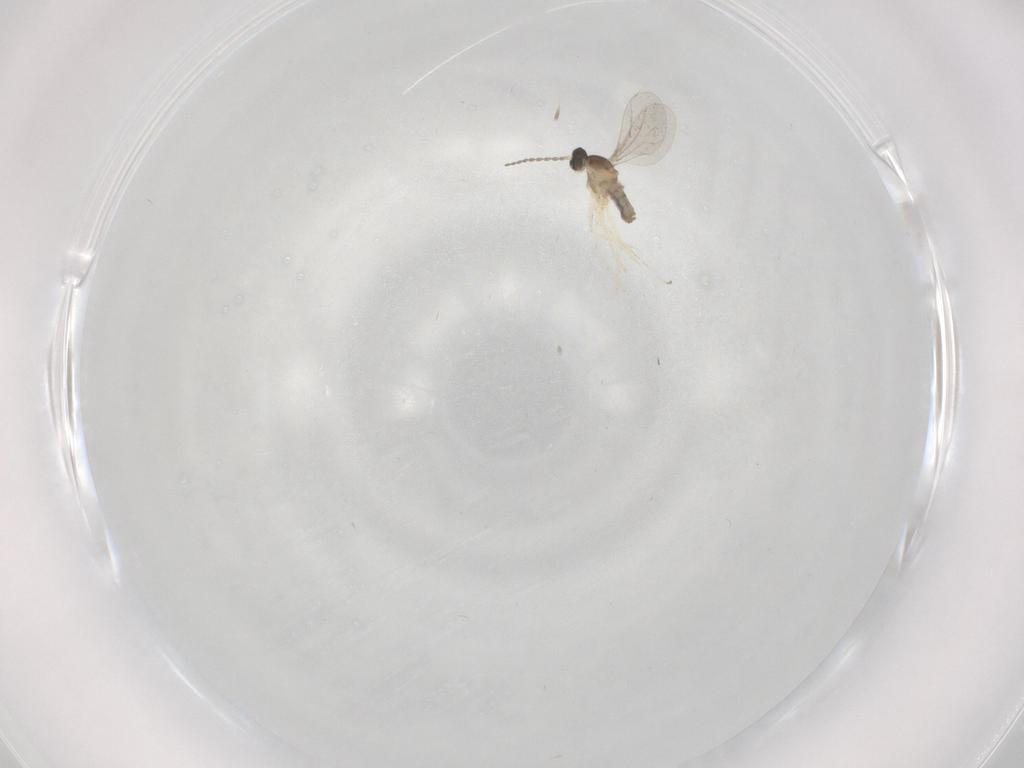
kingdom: Animalia
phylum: Arthropoda
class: Insecta
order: Diptera
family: Cecidomyiidae
